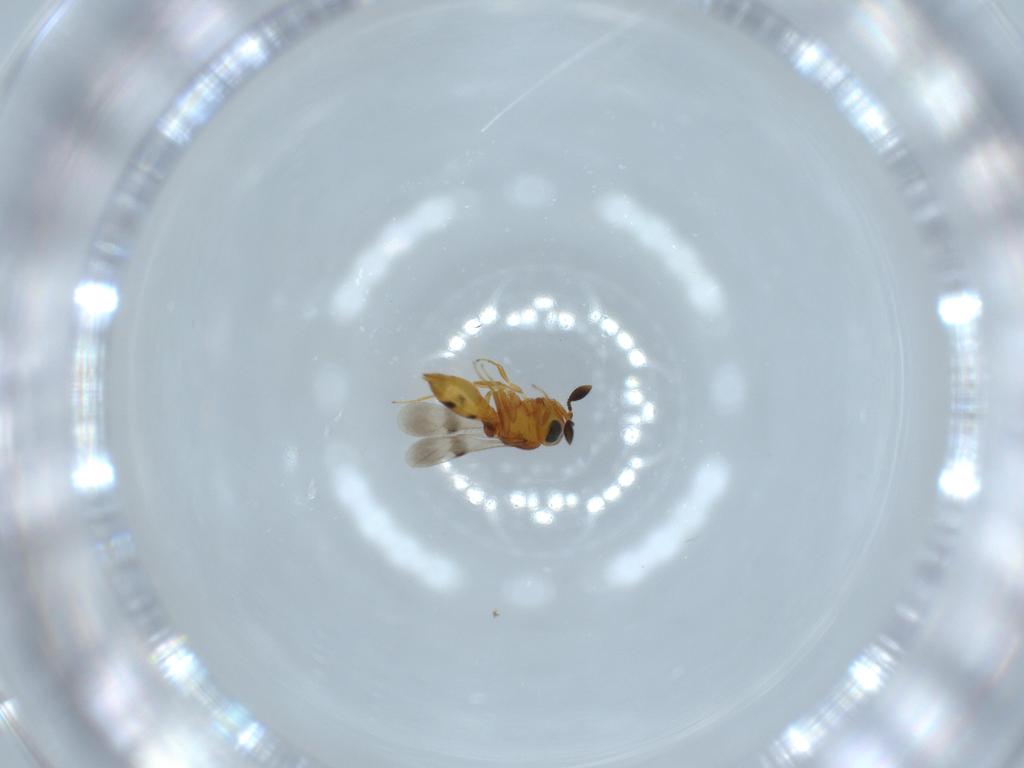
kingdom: Animalia
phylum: Arthropoda
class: Insecta
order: Hymenoptera
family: Scelionidae
